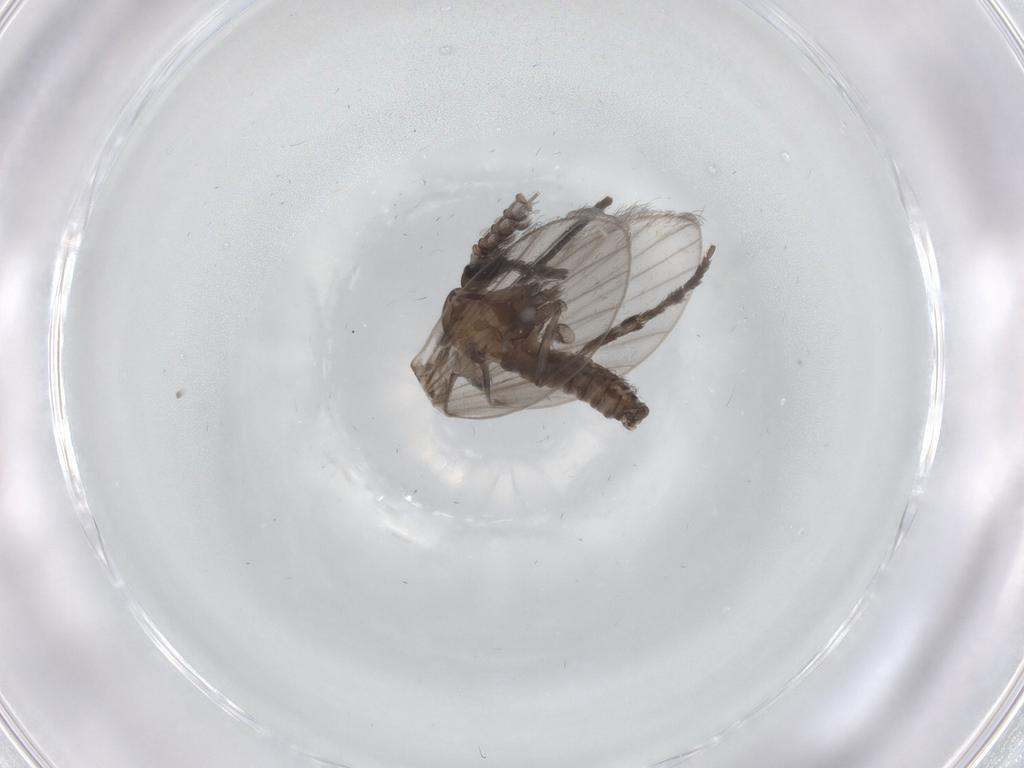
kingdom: Animalia
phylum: Arthropoda
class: Insecta
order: Diptera
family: Psychodidae
